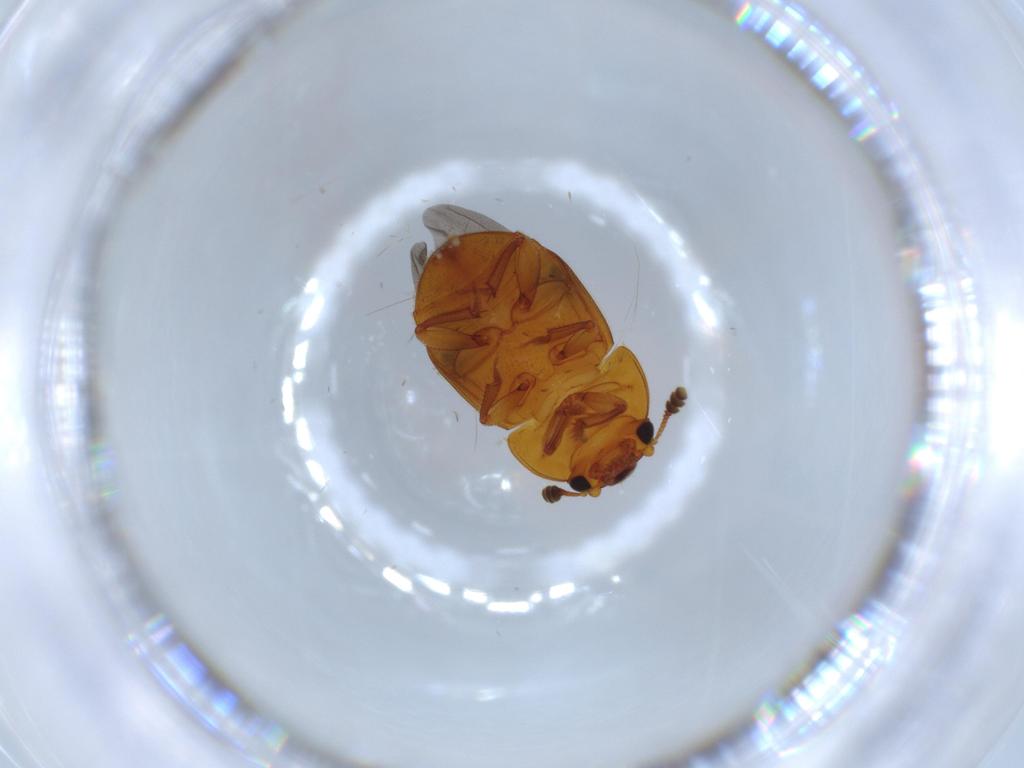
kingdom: Animalia
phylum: Arthropoda
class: Insecta
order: Coleoptera
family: Nitidulidae
